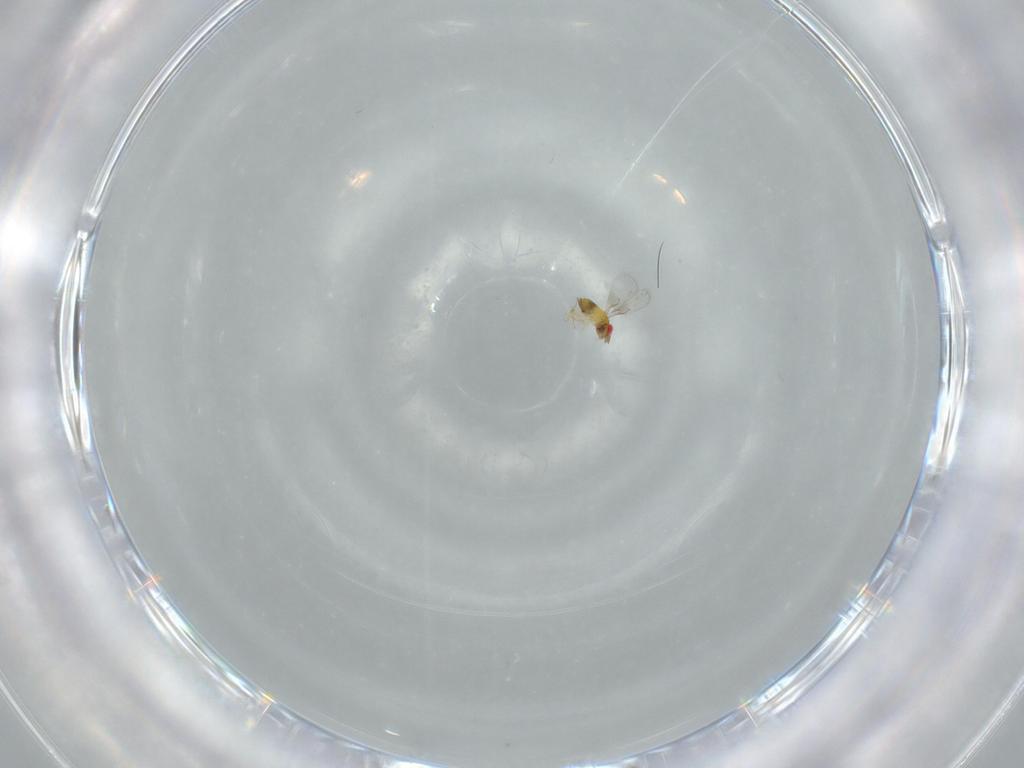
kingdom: Animalia
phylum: Arthropoda
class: Insecta
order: Hymenoptera
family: Trichogrammatidae
